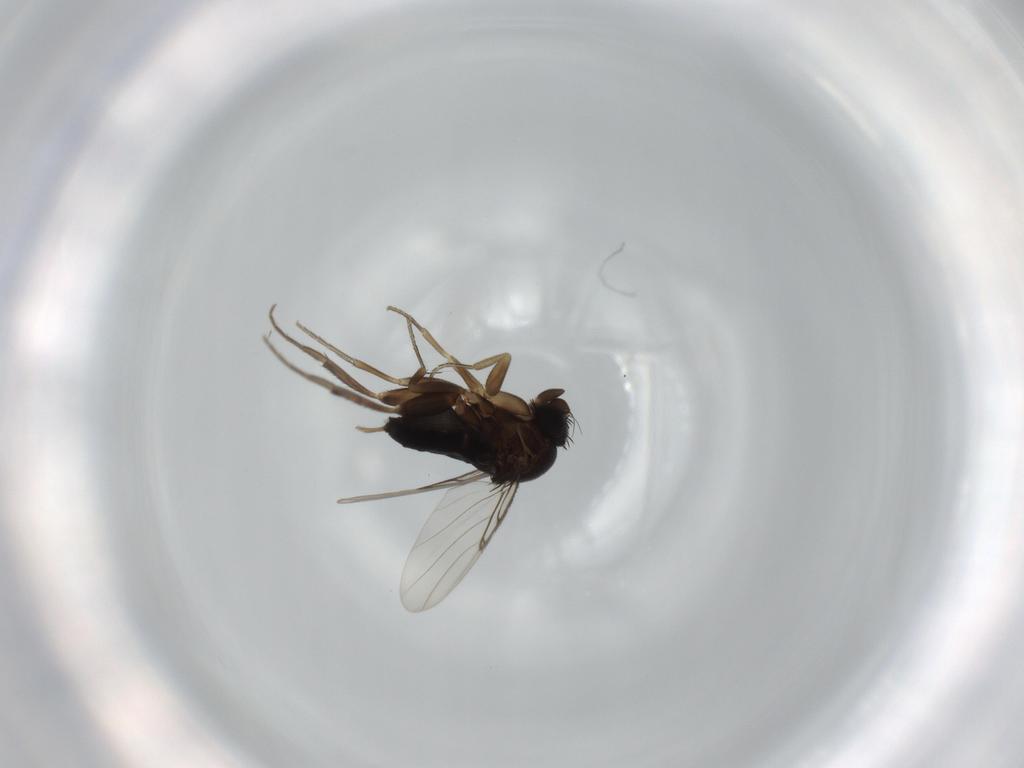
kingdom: Animalia
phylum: Arthropoda
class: Insecta
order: Diptera
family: Phoridae
